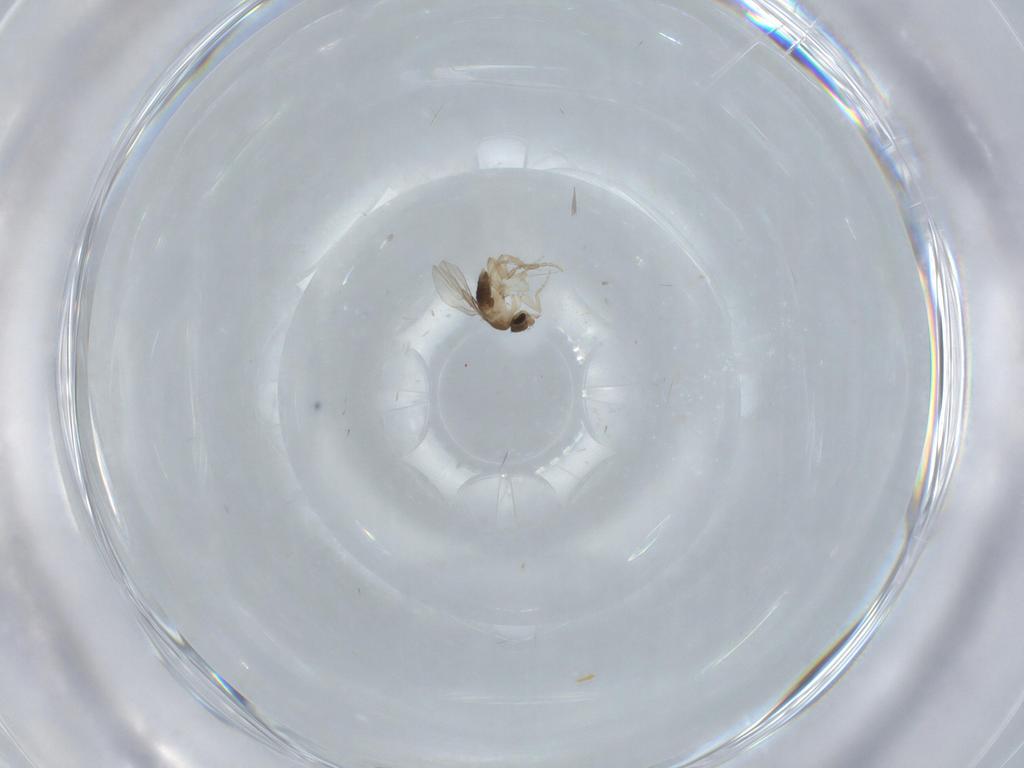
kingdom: Animalia
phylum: Arthropoda
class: Insecta
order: Diptera
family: Phoridae
